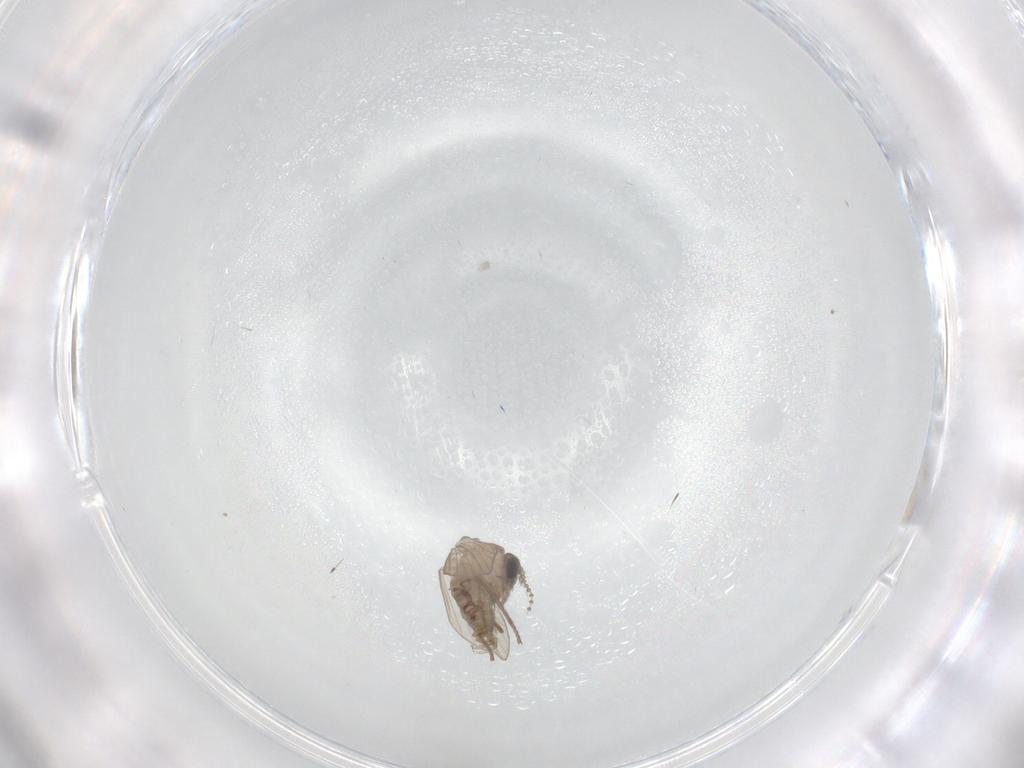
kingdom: Animalia
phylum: Arthropoda
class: Insecta
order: Diptera
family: Psychodidae
